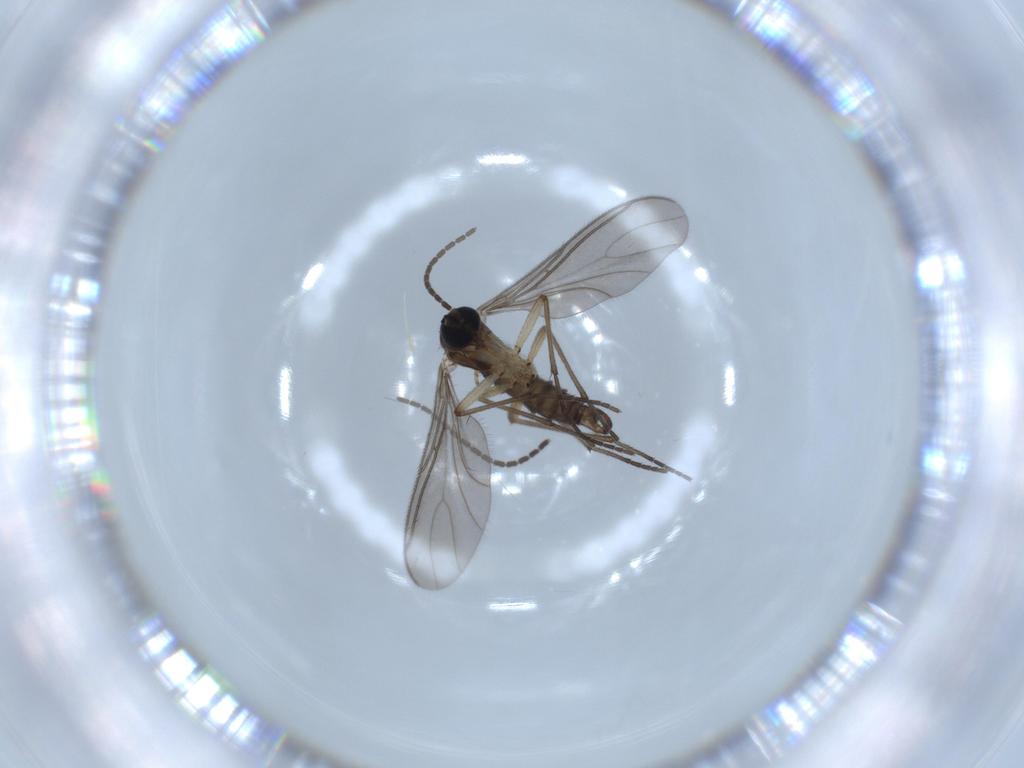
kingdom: Animalia
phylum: Arthropoda
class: Insecta
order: Diptera
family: Sciaridae
